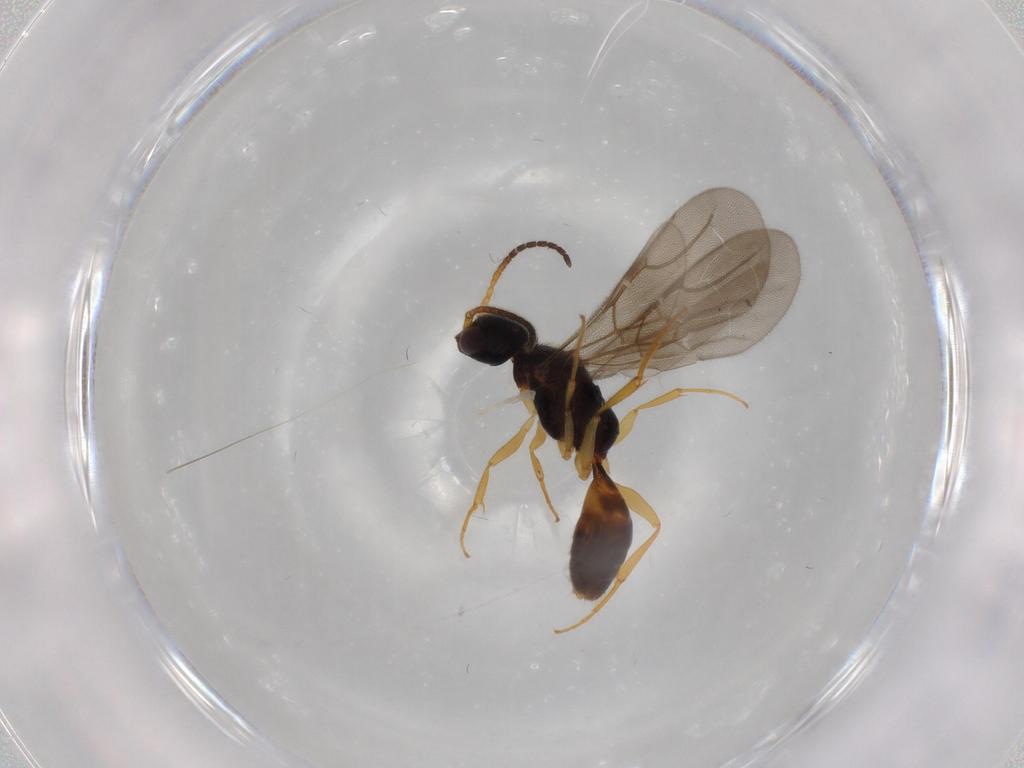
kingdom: Animalia
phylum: Arthropoda
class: Insecta
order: Hymenoptera
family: Bethylidae
